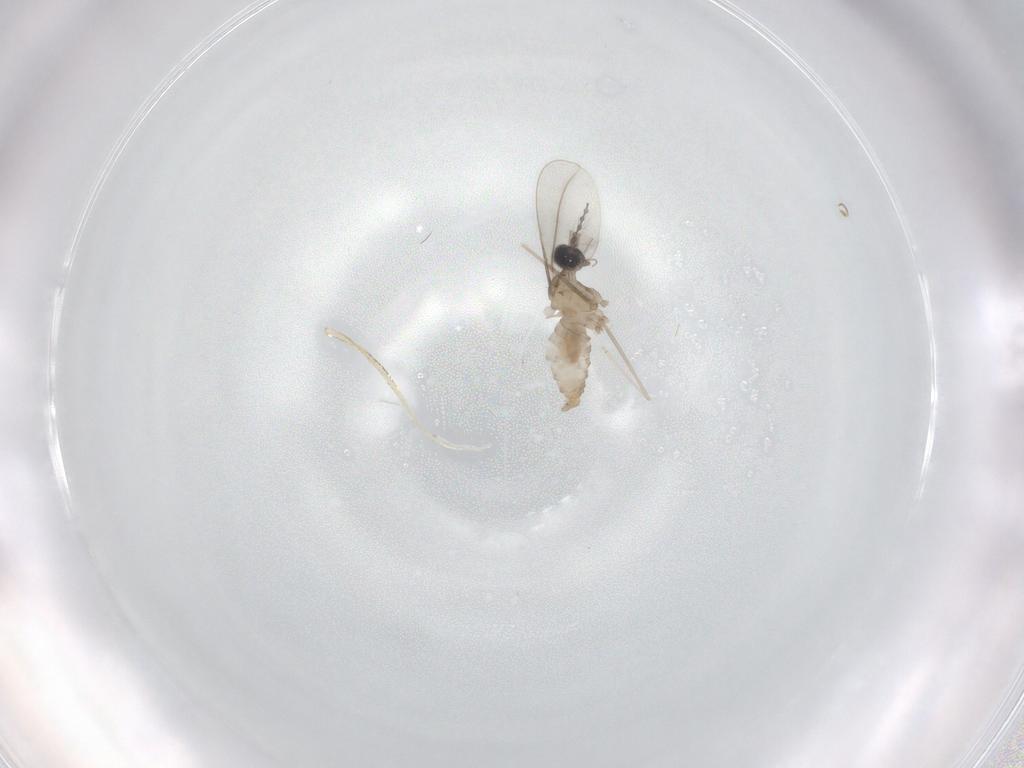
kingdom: Animalia
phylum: Arthropoda
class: Insecta
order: Diptera
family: Cecidomyiidae
